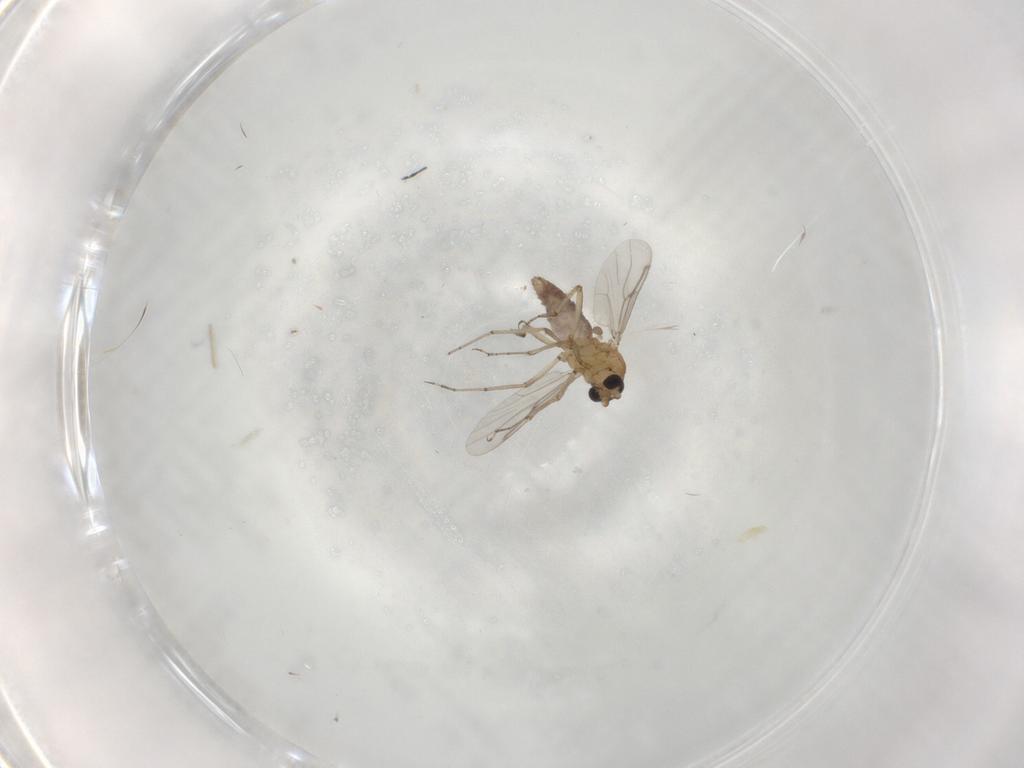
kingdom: Animalia
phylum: Arthropoda
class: Insecta
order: Diptera
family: Ceratopogonidae
